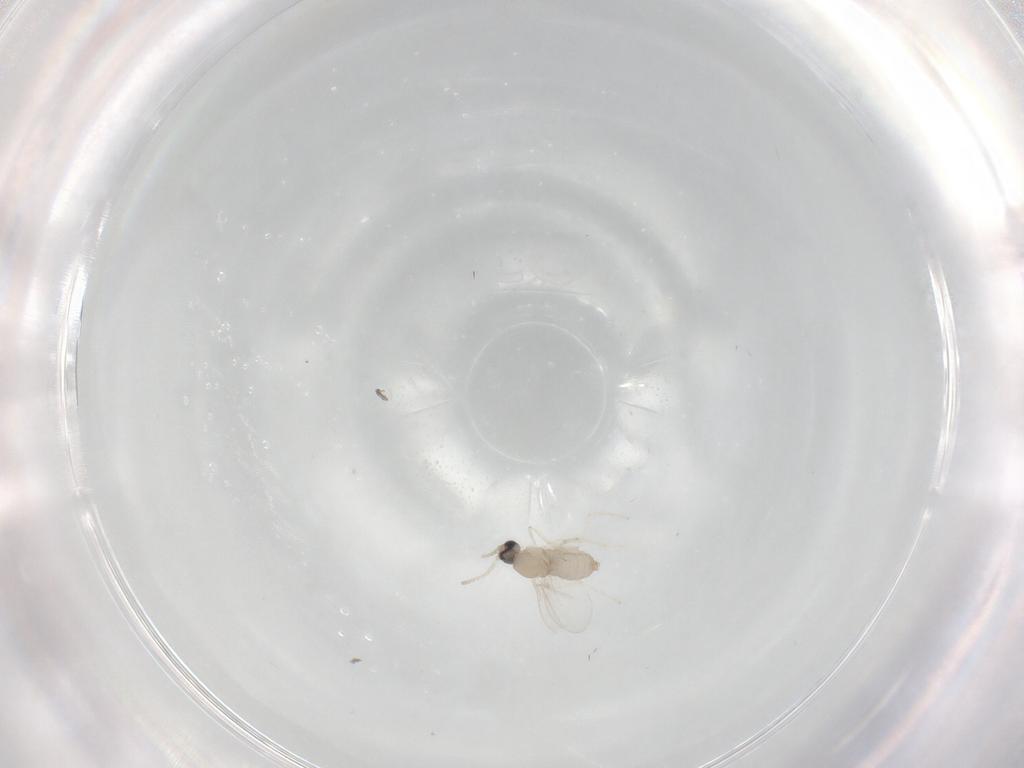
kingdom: Animalia
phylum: Arthropoda
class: Insecta
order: Diptera
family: Cecidomyiidae
